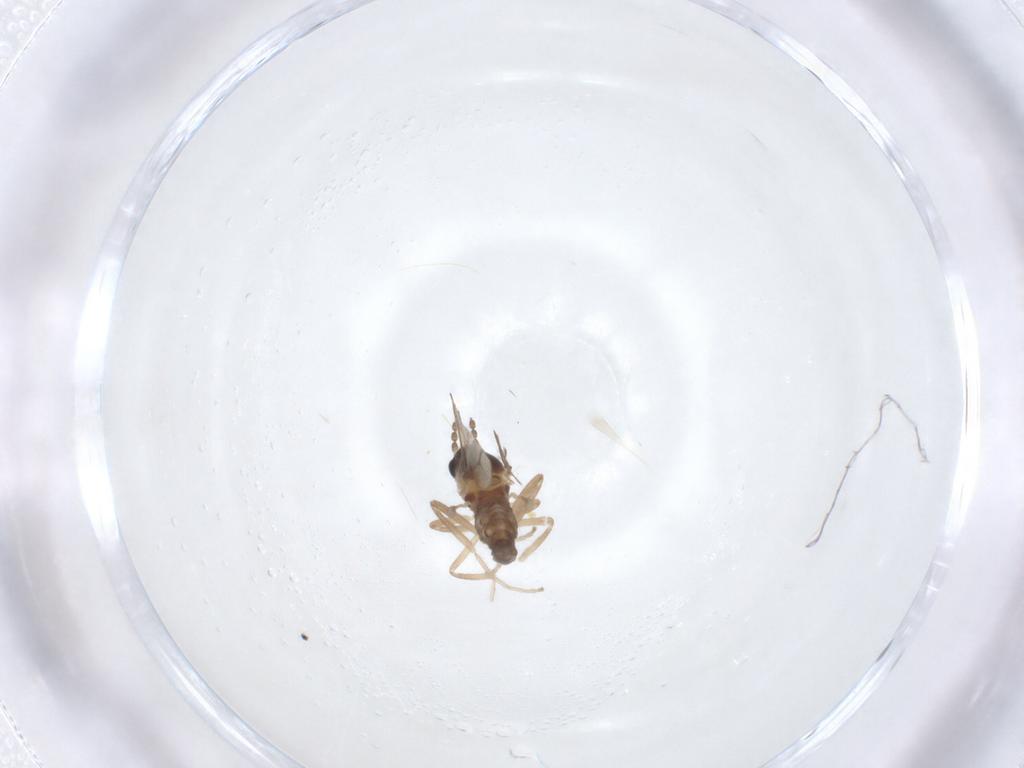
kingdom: Animalia
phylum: Arthropoda
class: Insecta
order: Diptera
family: Cecidomyiidae
